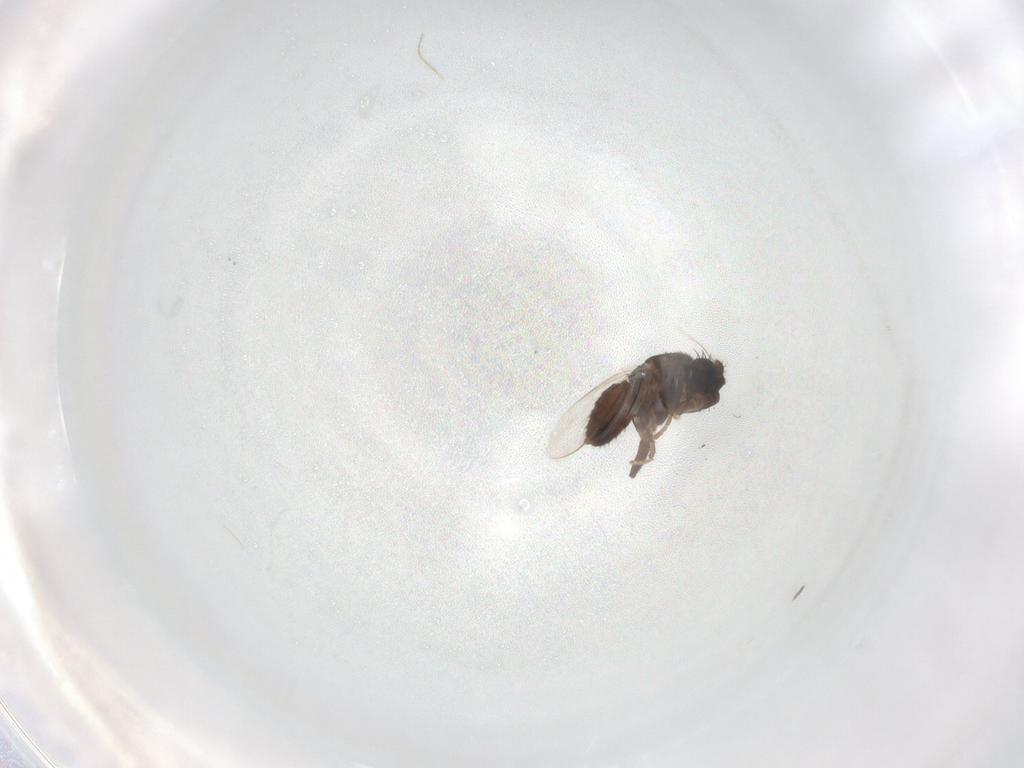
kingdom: Animalia
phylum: Arthropoda
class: Insecta
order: Diptera
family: Sphaeroceridae
